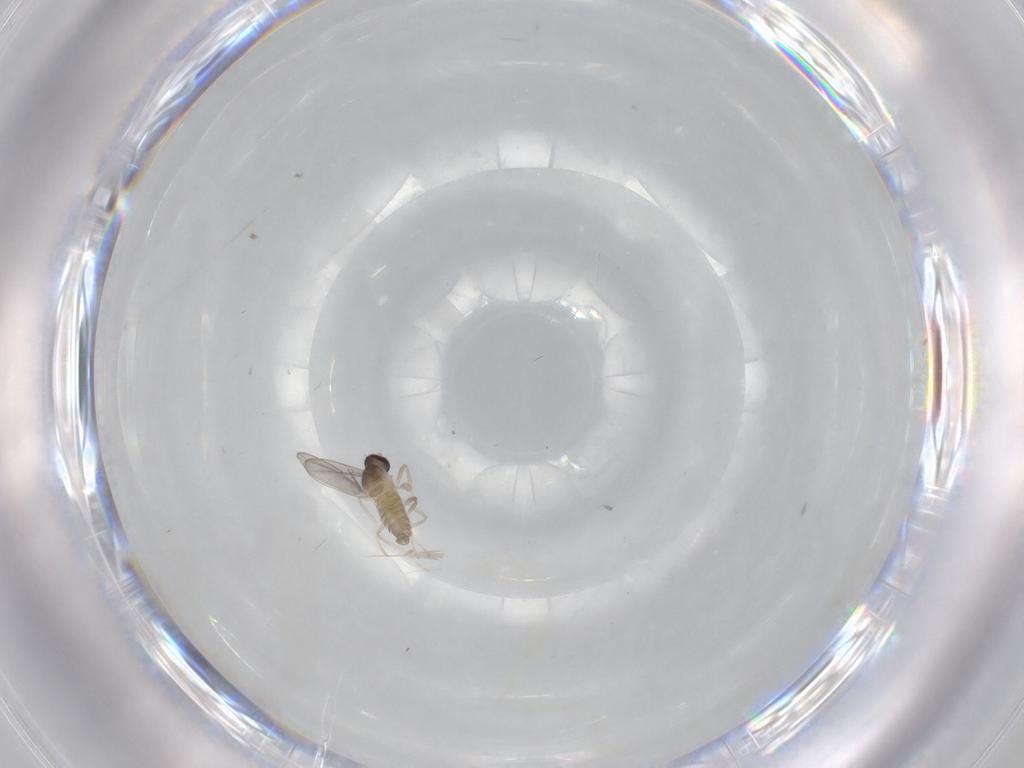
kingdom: Animalia
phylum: Arthropoda
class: Insecta
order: Diptera
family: Cecidomyiidae
